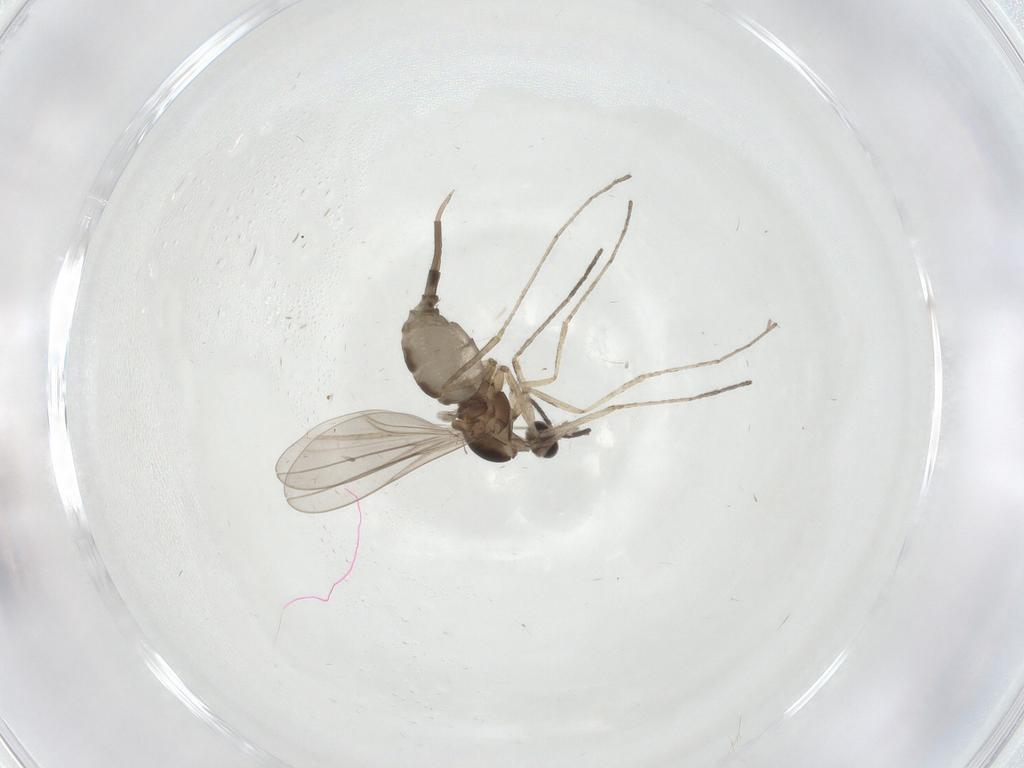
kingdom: Animalia
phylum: Arthropoda
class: Insecta
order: Diptera
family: Cecidomyiidae
